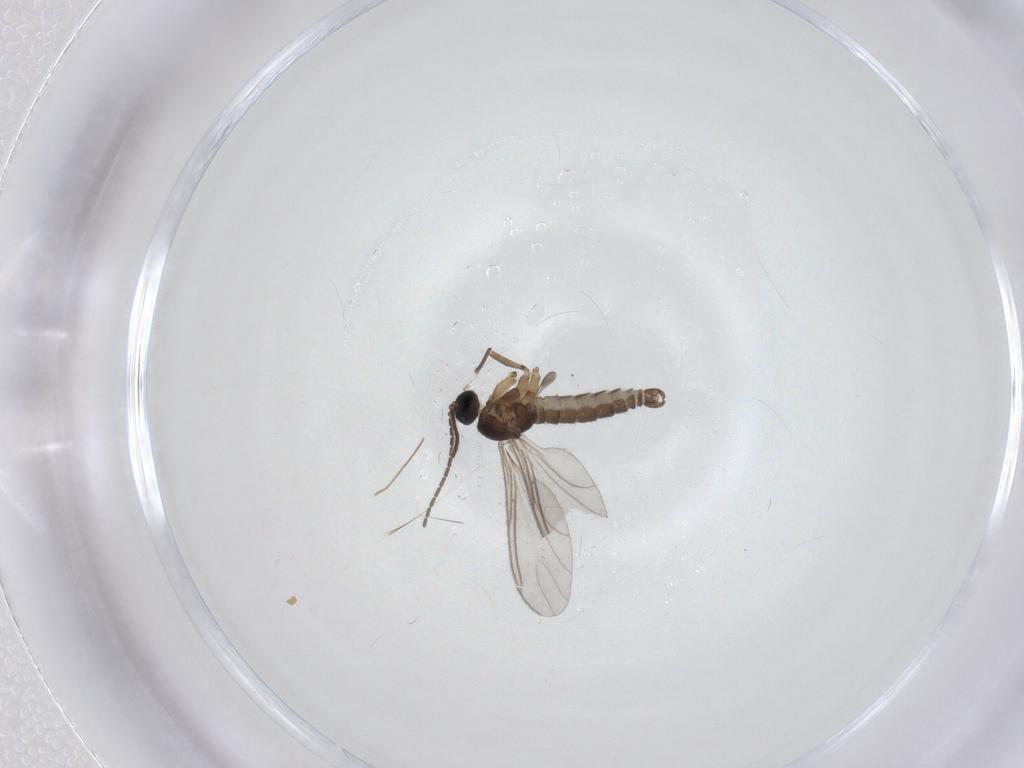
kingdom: Animalia
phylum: Arthropoda
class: Insecta
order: Diptera
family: Sciaridae
